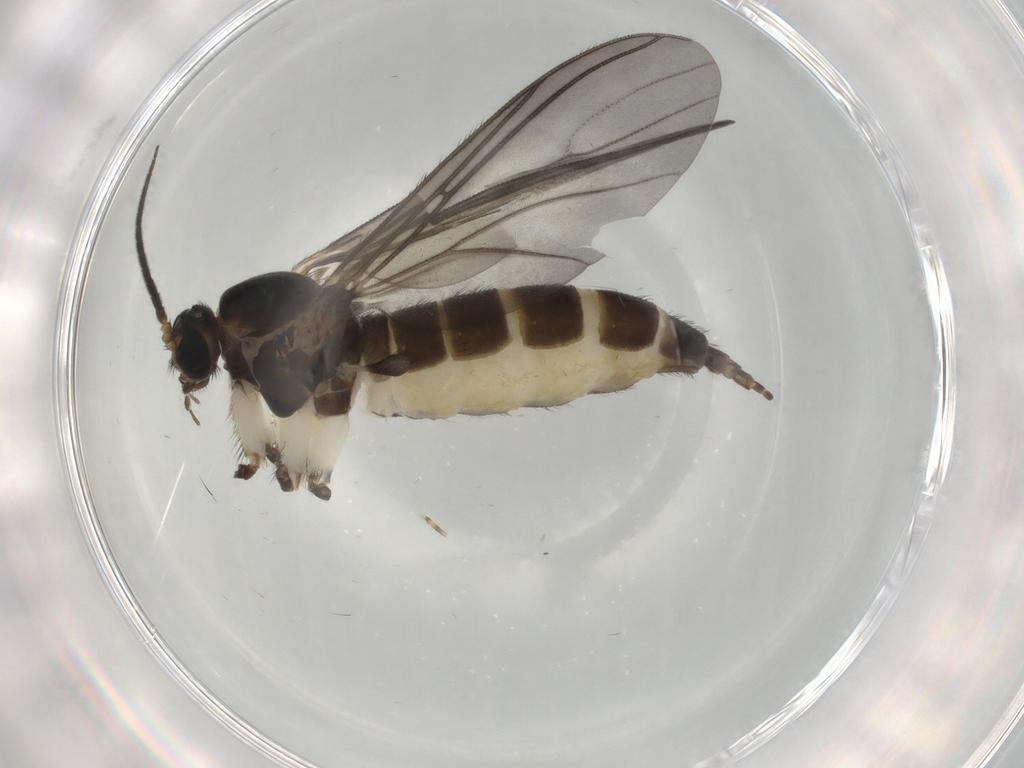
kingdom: Animalia
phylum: Arthropoda
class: Insecta
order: Diptera
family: Sciaridae
